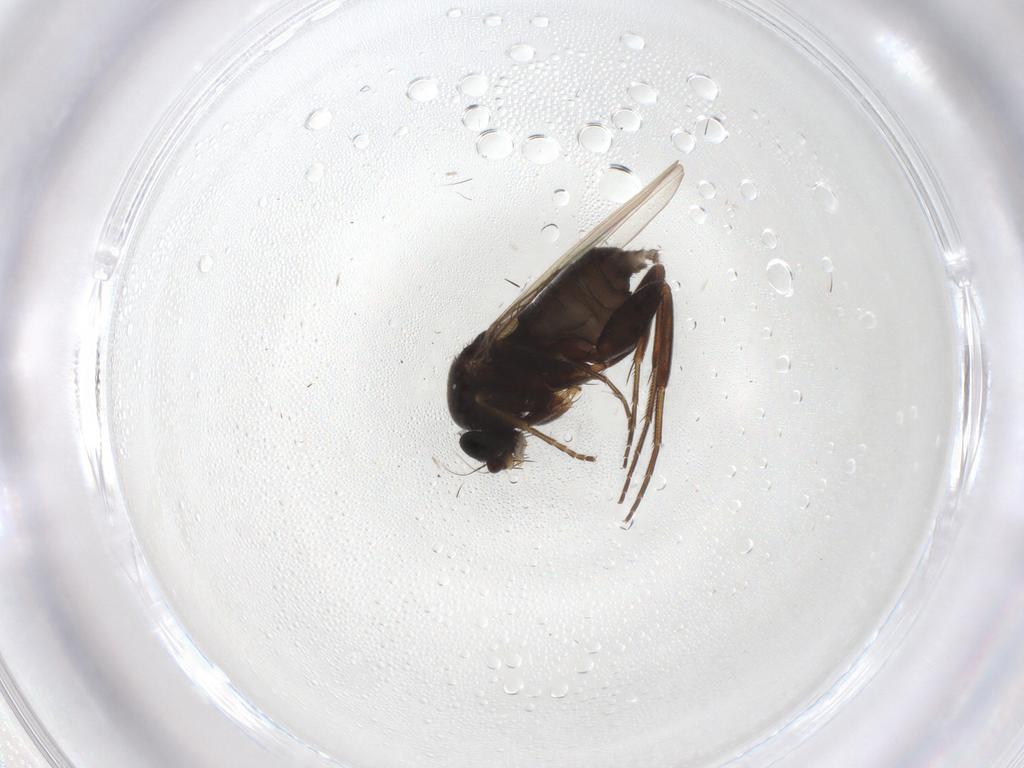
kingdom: Animalia
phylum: Arthropoda
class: Insecta
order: Diptera
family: Phoridae
